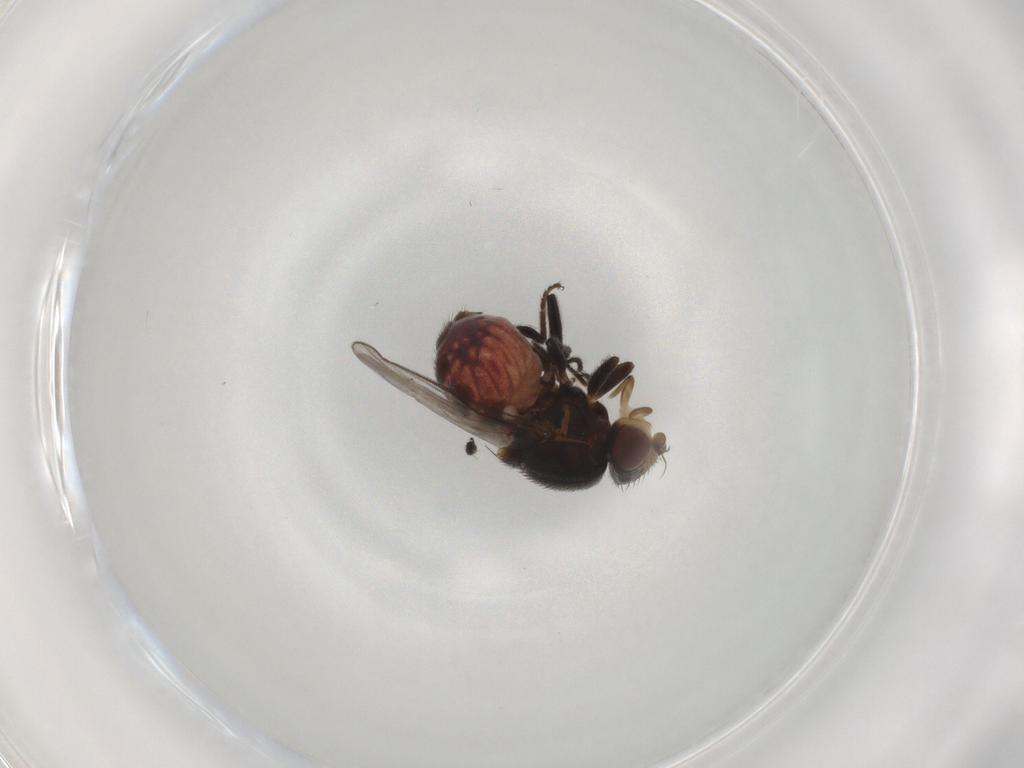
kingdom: Animalia
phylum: Arthropoda
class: Insecta
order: Diptera
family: Chloropidae
